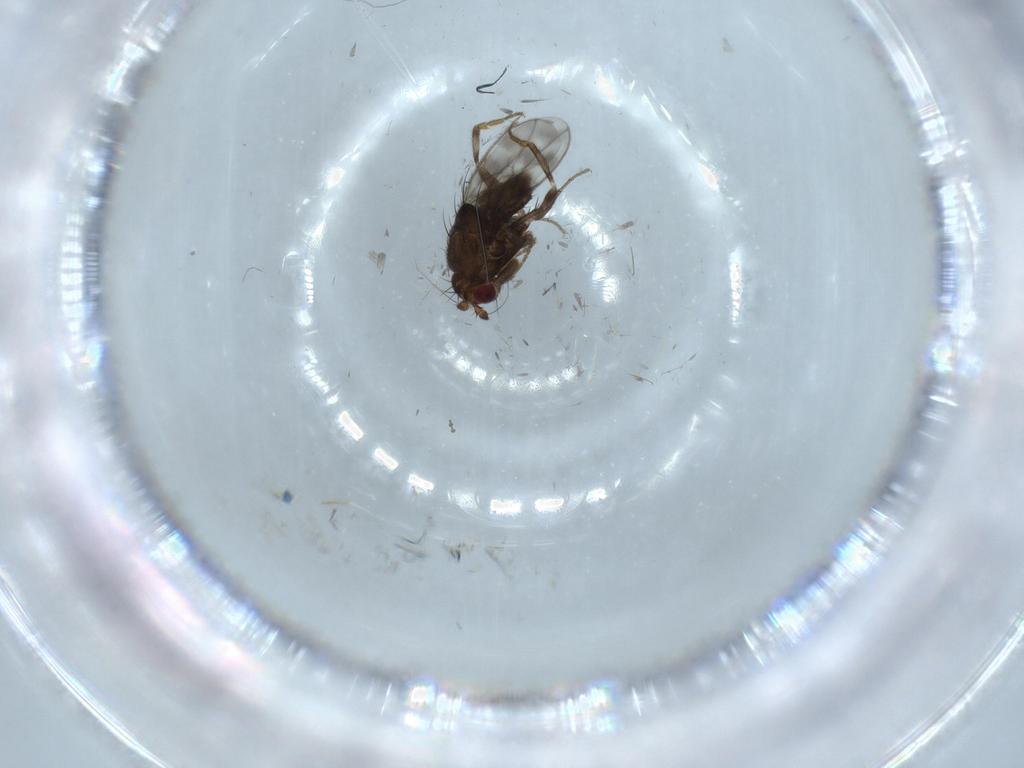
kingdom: Animalia
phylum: Arthropoda
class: Insecta
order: Diptera
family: Sphaeroceridae
